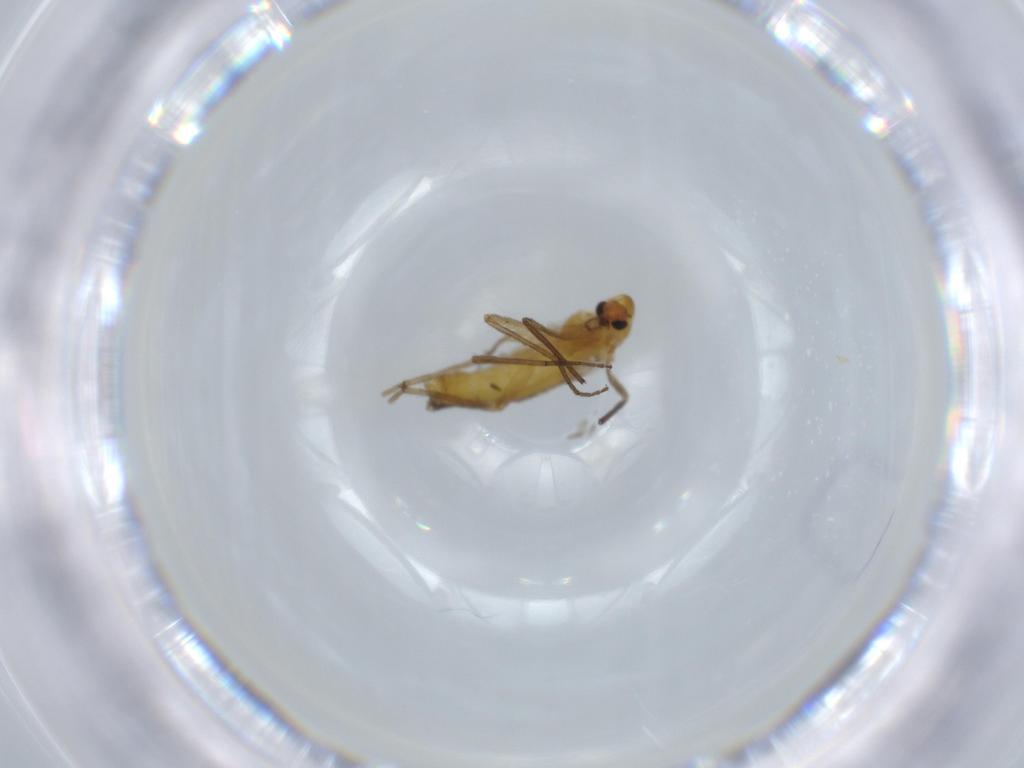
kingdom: Animalia
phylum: Arthropoda
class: Insecta
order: Diptera
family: Chironomidae
